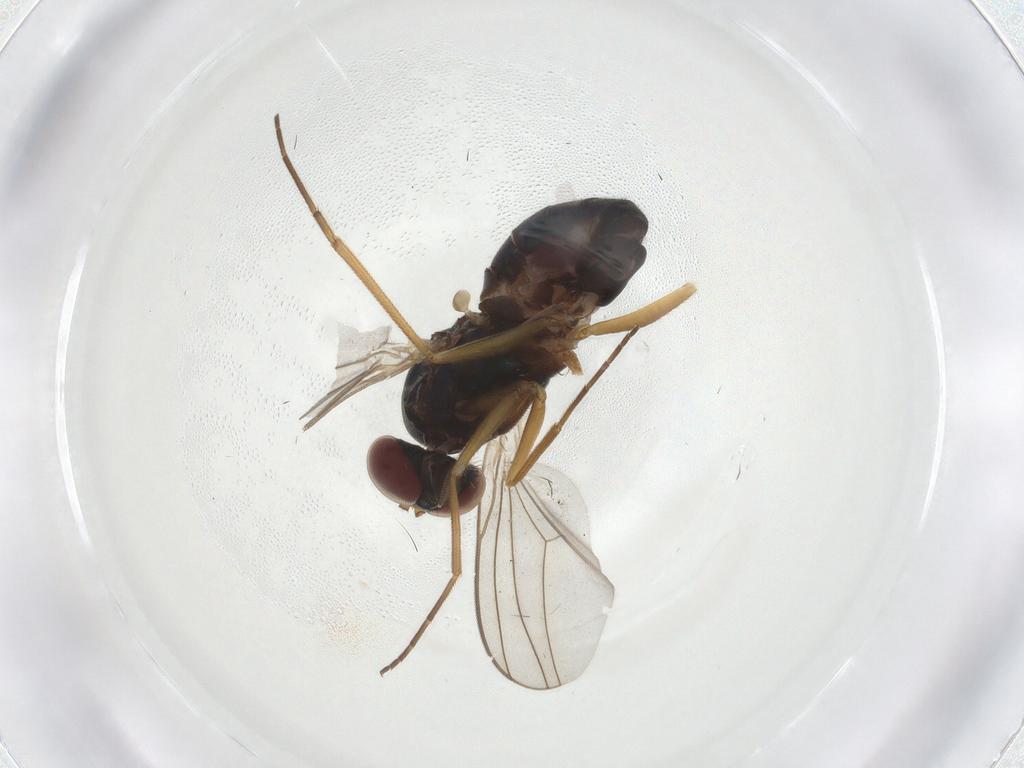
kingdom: Animalia
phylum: Arthropoda
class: Insecta
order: Diptera
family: Dolichopodidae
